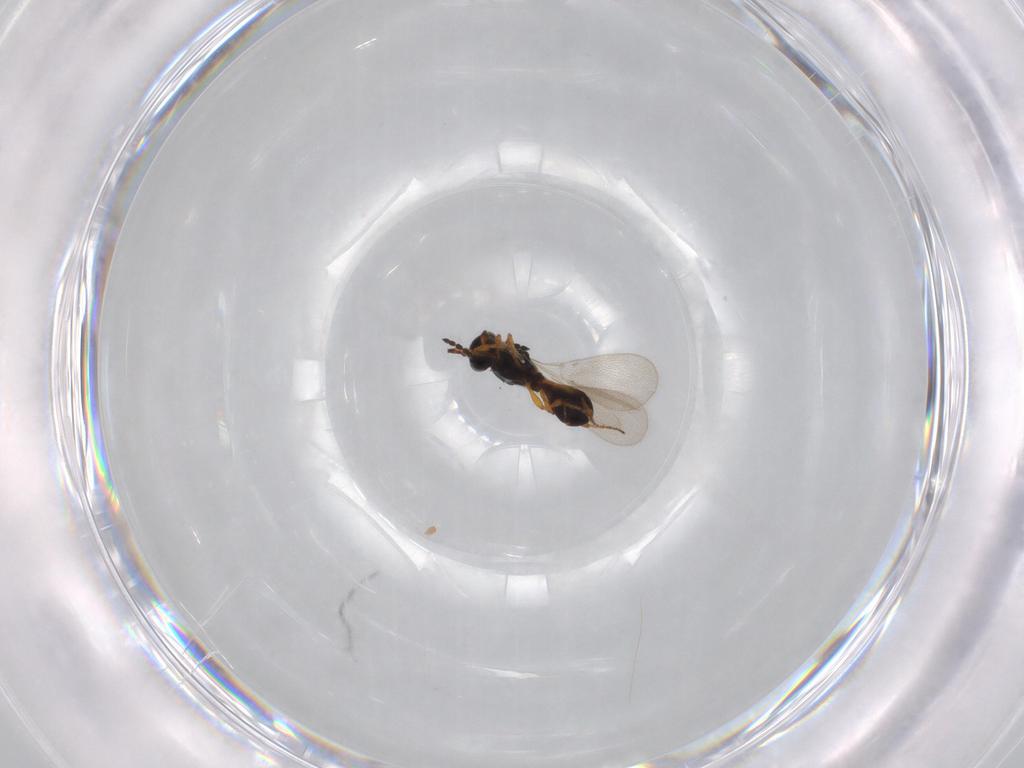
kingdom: Animalia
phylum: Arthropoda
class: Insecta
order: Hymenoptera
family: Platygastridae
